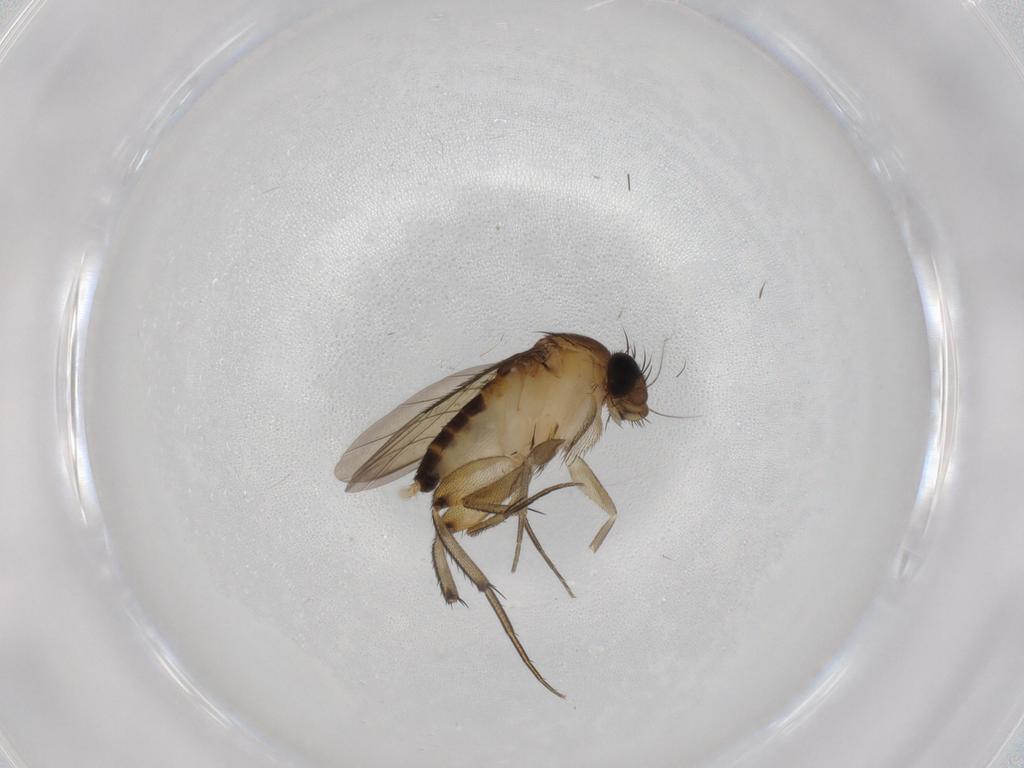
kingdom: Animalia
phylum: Arthropoda
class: Insecta
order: Diptera
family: Phoridae
